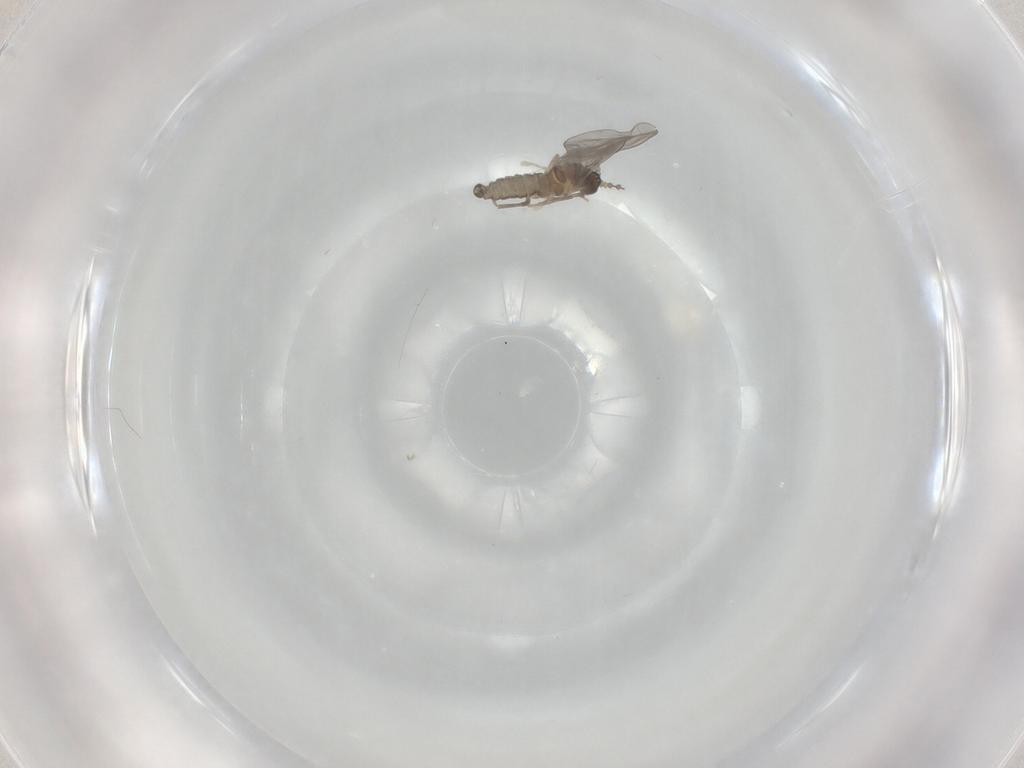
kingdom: Animalia
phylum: Arthropoda
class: Insecta
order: Diptera
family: Sciaridae
